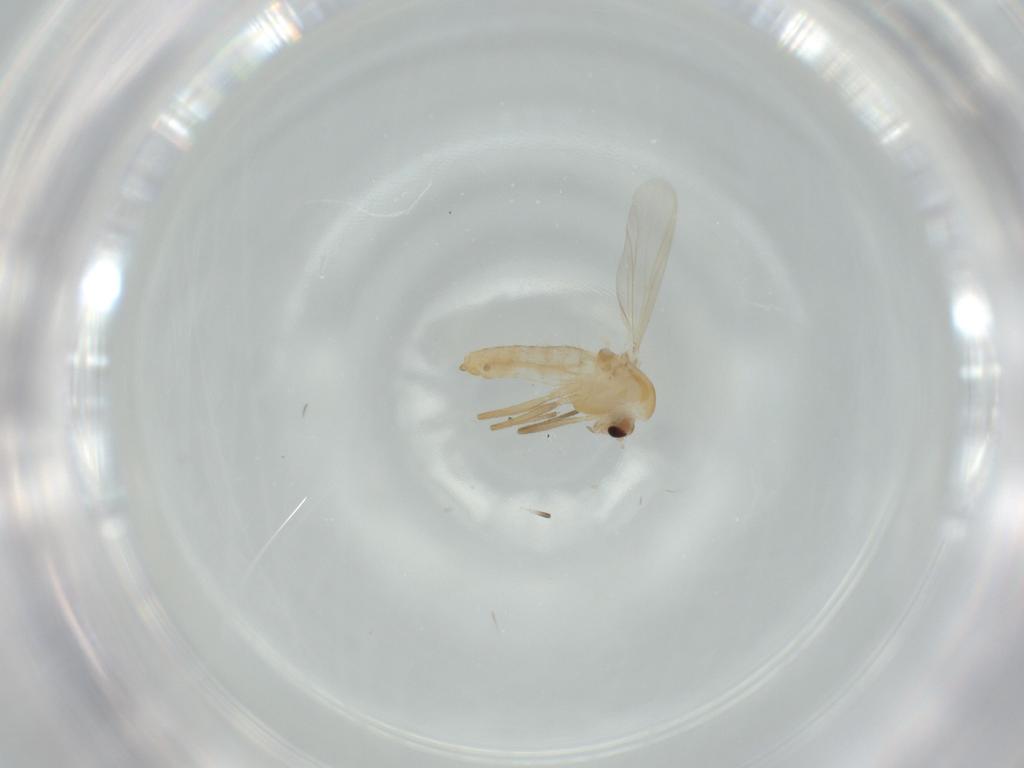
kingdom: Animalia
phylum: Arthropoda
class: Insecta
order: Diptera
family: Cecidomyiidae
